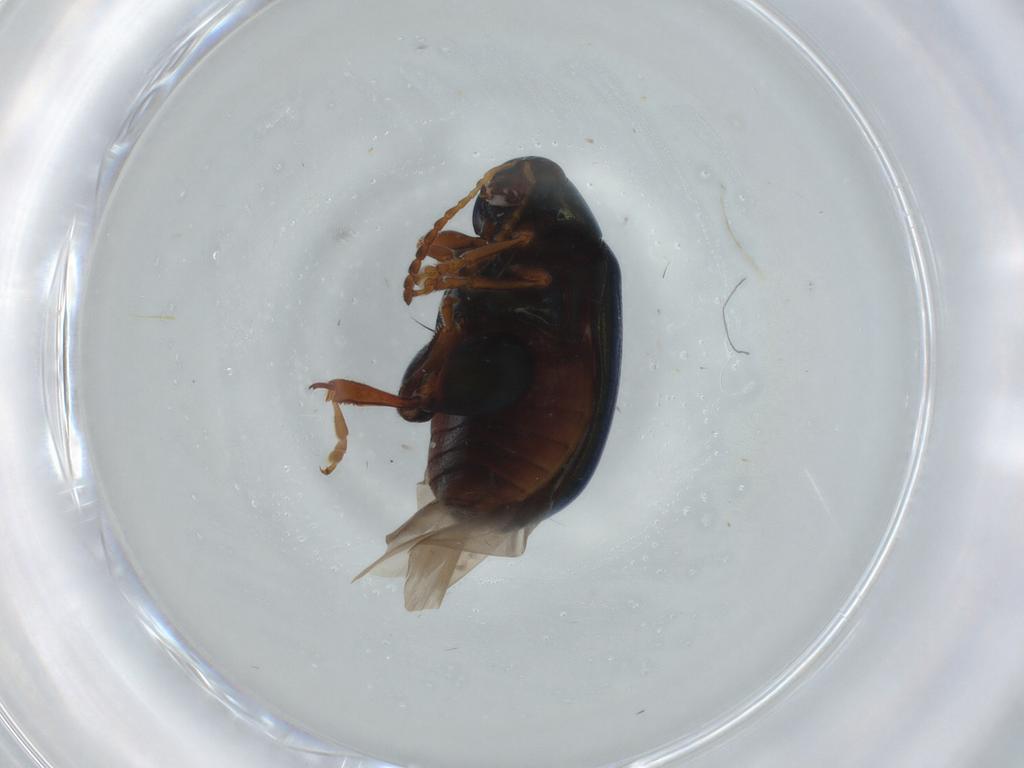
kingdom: Animalia
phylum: Arthropoda
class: Insecta
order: Coleoptera
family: Chrysomelidae
